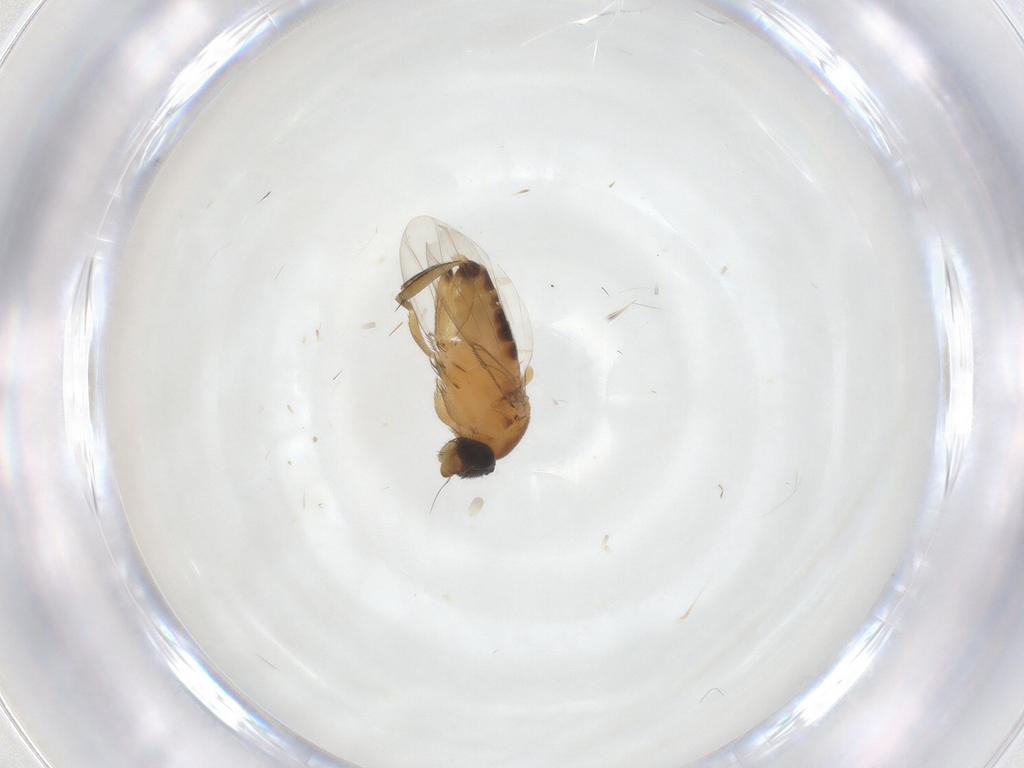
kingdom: Animalia
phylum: Arthropoda
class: Insecta
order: Diptera
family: Phoridae
